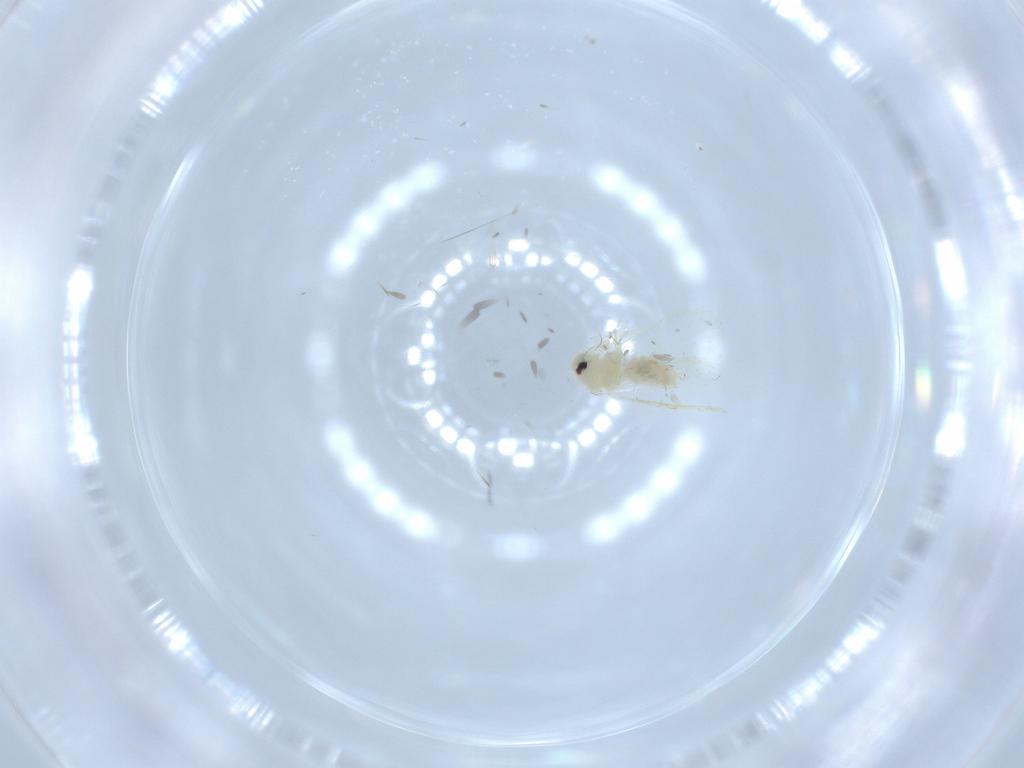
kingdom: Animalia
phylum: Arthropoda
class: Insecta
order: Hemiptera
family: Aleyrodidae
